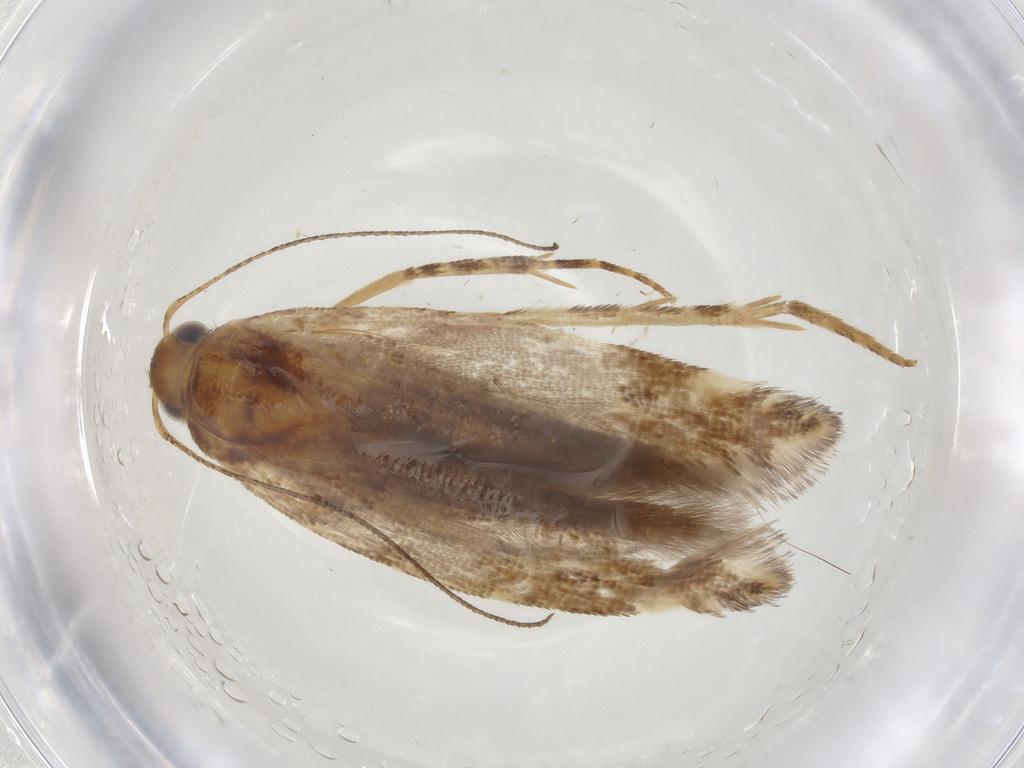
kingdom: Animalia
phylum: Arthropoda
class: Insecta
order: Lepidoptera
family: Gelechiidae
